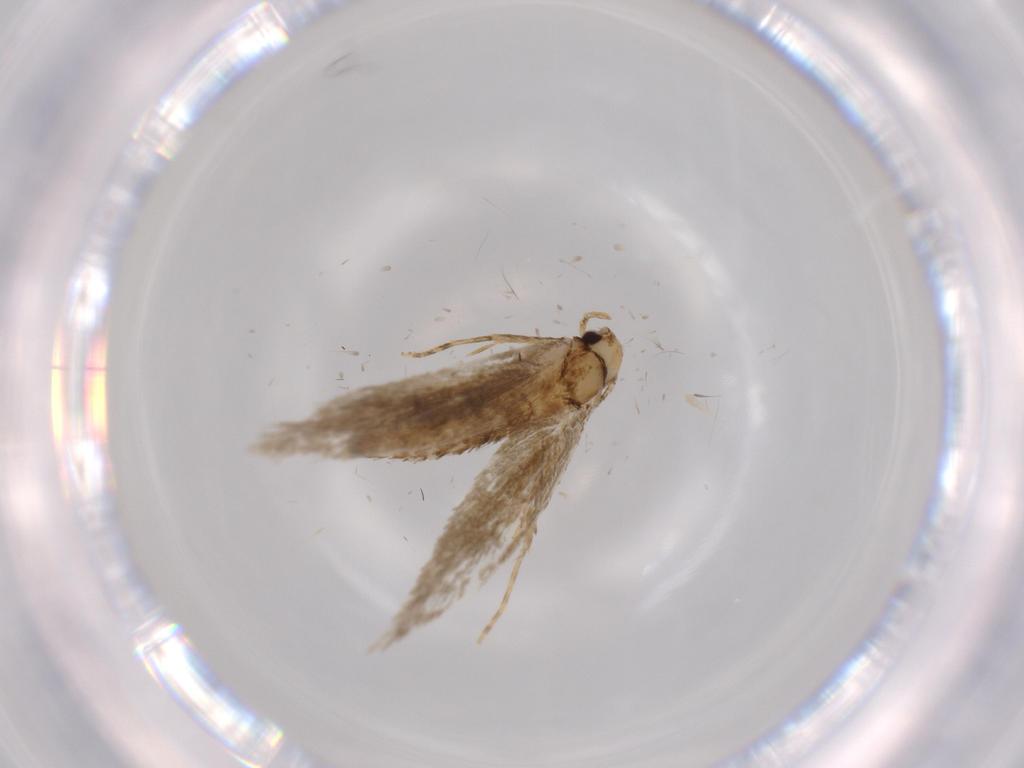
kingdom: Animalia
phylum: Arthropoda
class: Insecta
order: Lepidoptera
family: Tineidae
